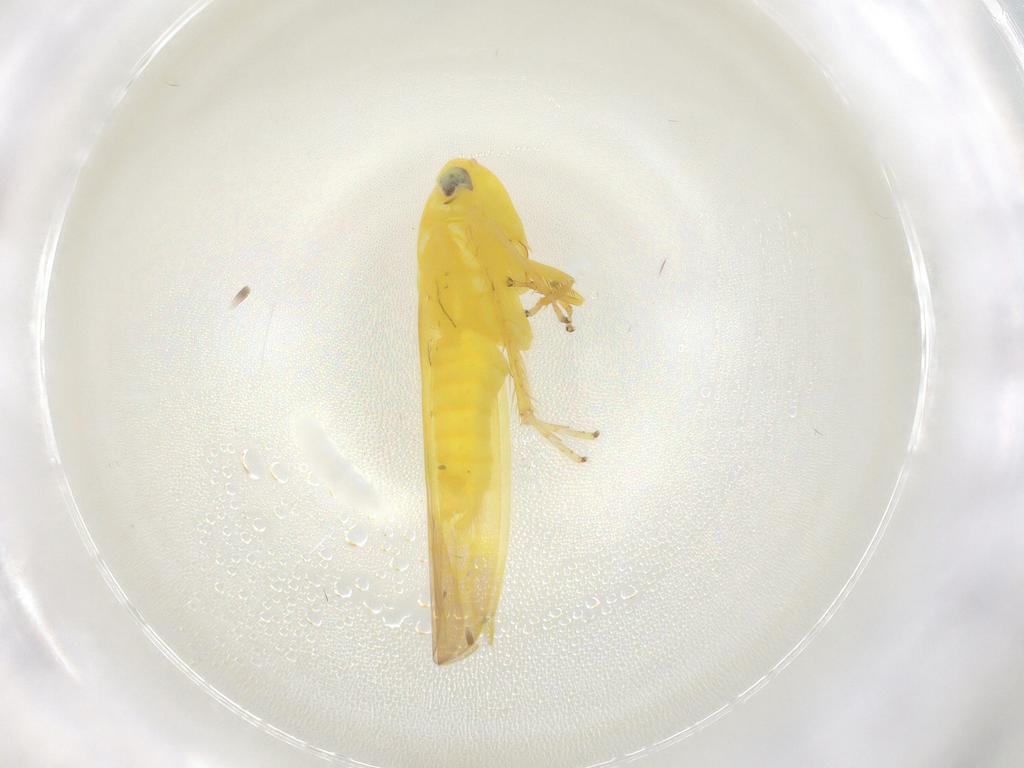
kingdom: Animalia
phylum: Arthropoda
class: Insecta
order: Hemiptera
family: Cicadellidae
